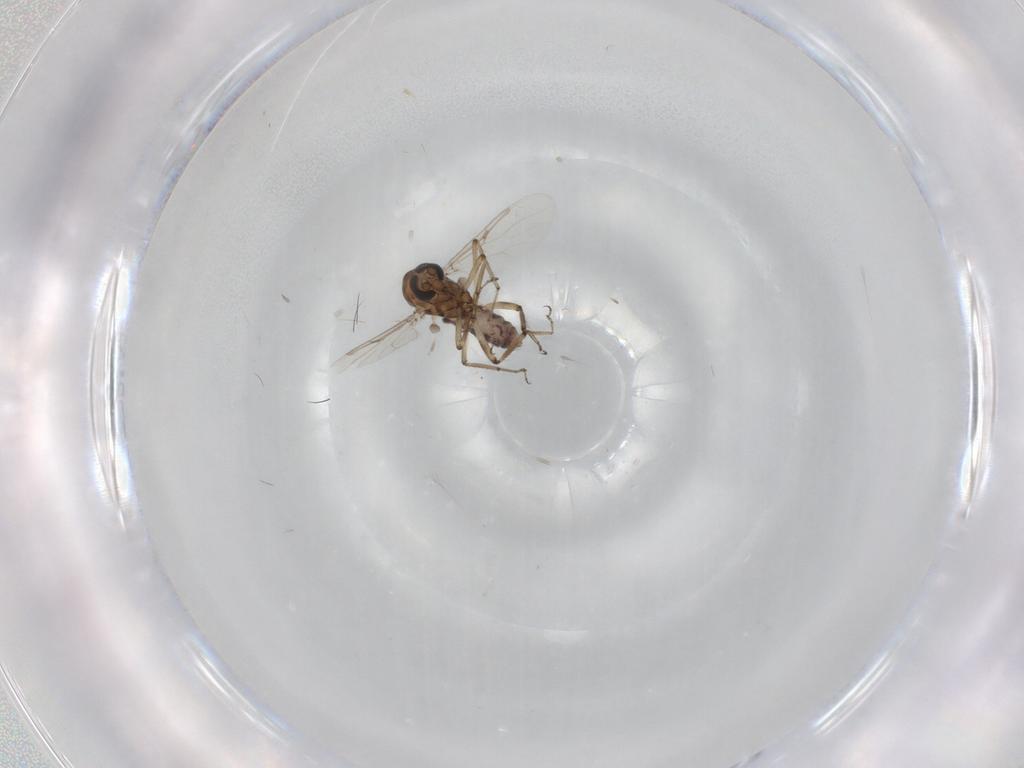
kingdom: Animalia
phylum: Arthropoda
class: Insecta
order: Diptera
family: Ceratopogonidae
